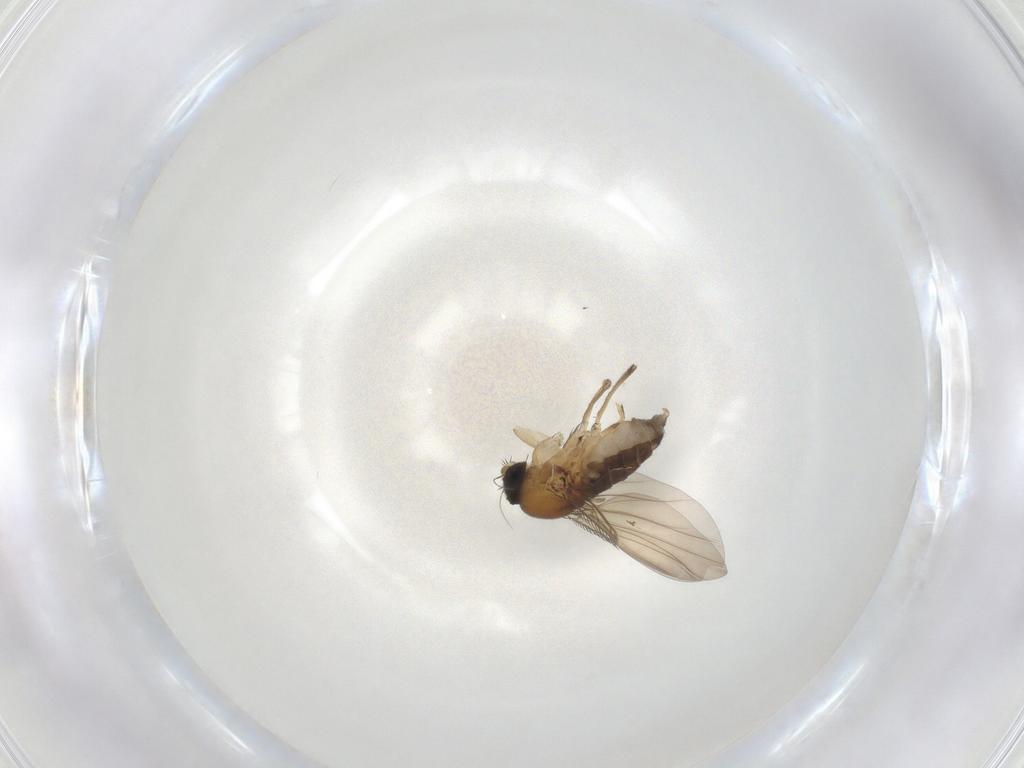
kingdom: Animalia
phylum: Arthropoda
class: Insecta
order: Diptera
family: Phoridae
